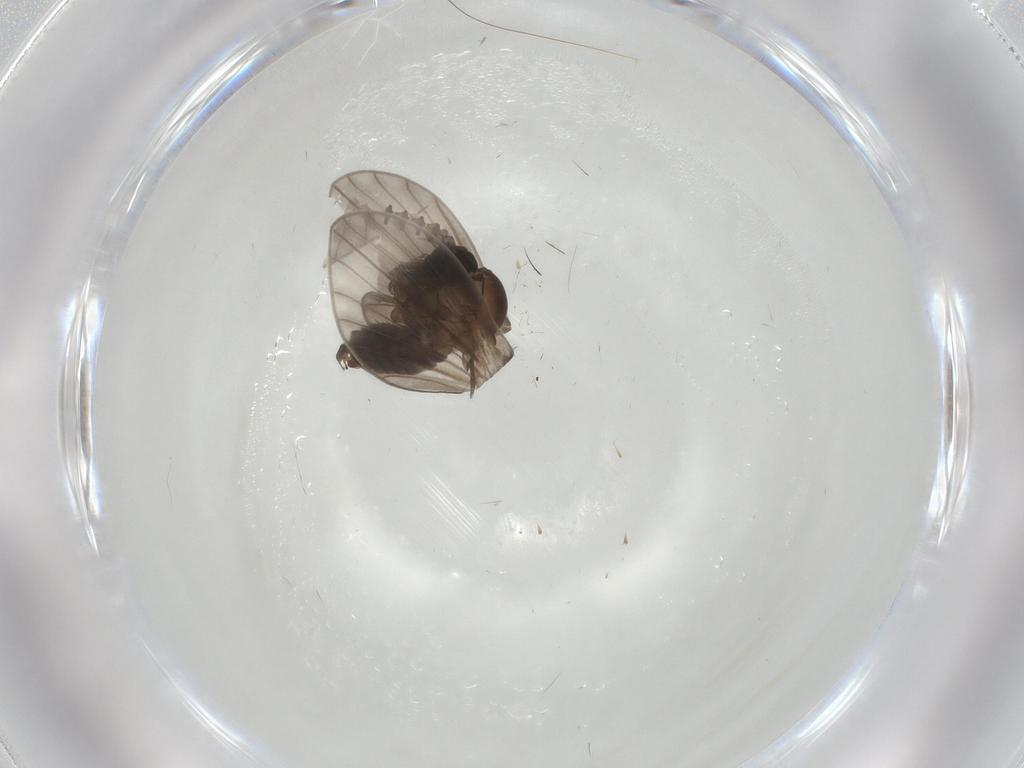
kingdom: Animalia
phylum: Arthropoda
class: Insecta
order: Diptera
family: Psychodidae
